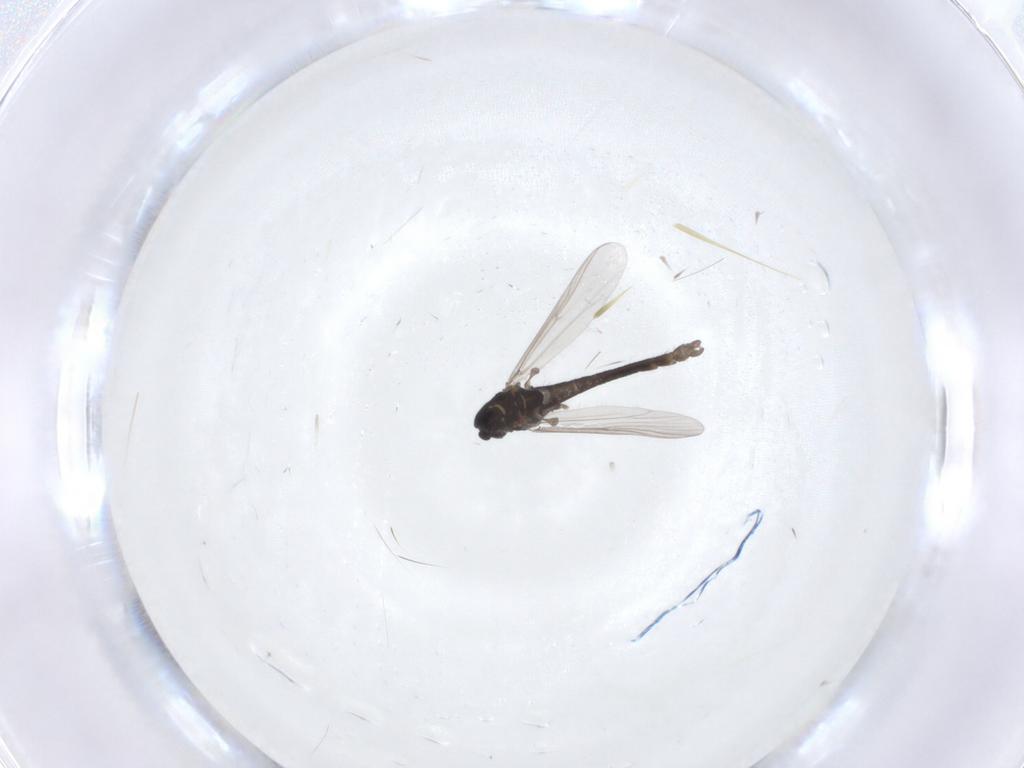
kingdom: Animalia
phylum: Arthropoda
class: Insecta
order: Diptera
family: Chironomidae
